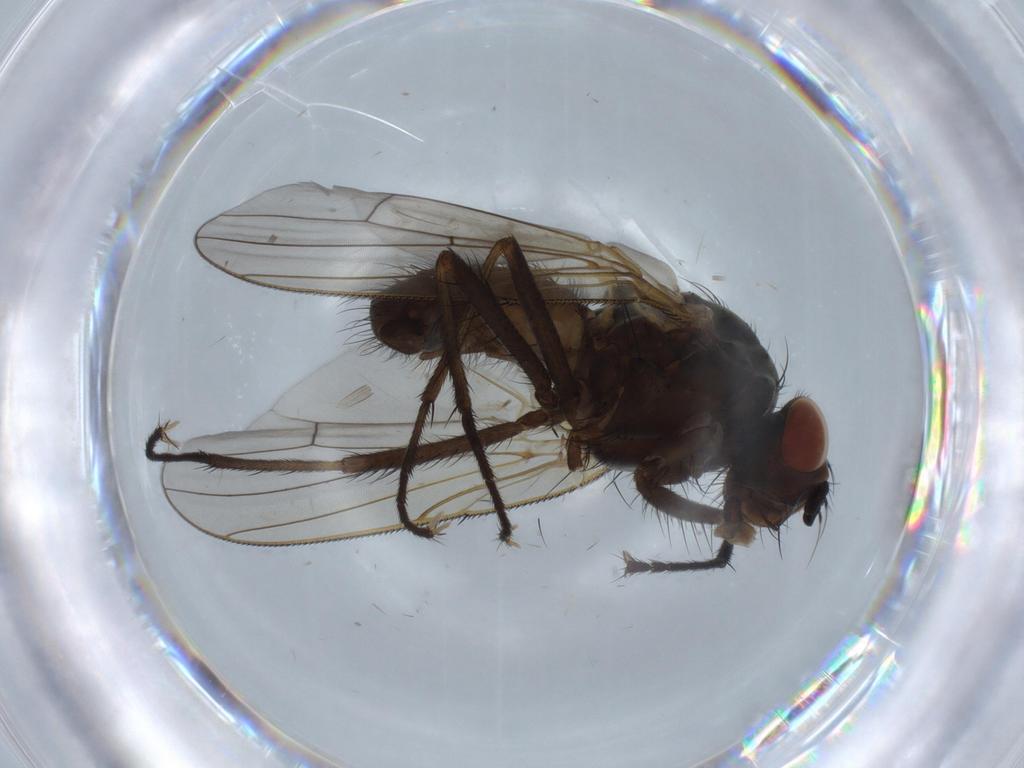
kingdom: Animalia
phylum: Arthropoda
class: Insecta
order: Diptera
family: Anthomyiidae
